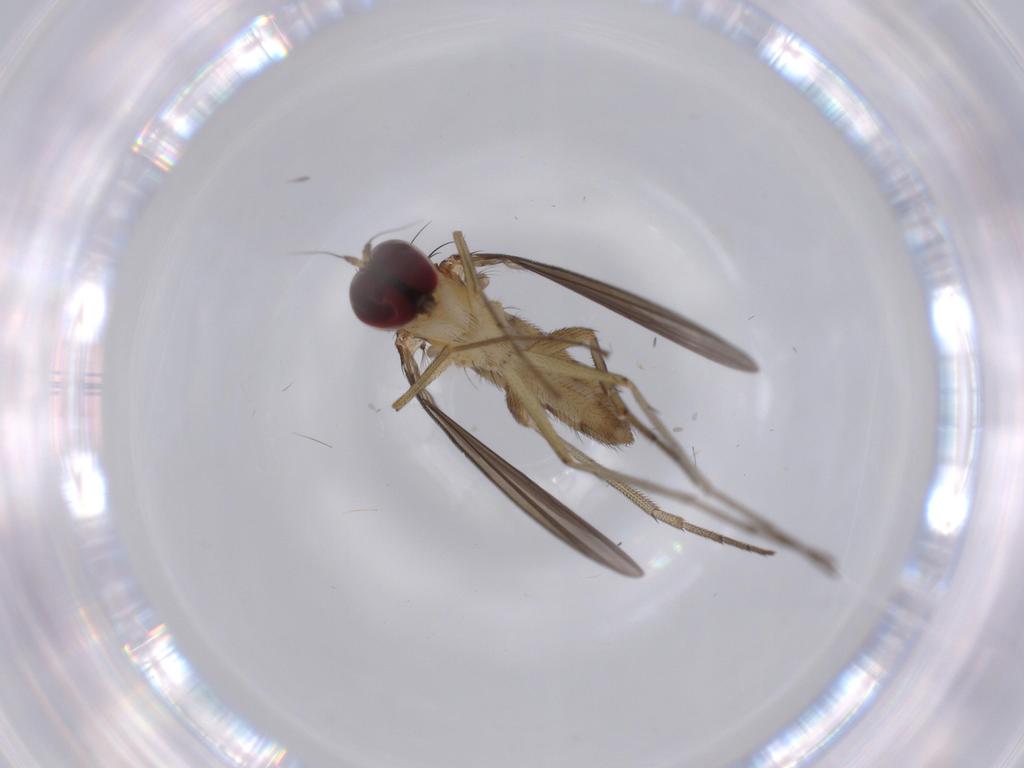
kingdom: Animalia
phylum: Arthropoda
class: Insecta
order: Diptera
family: Dolichopodidae
